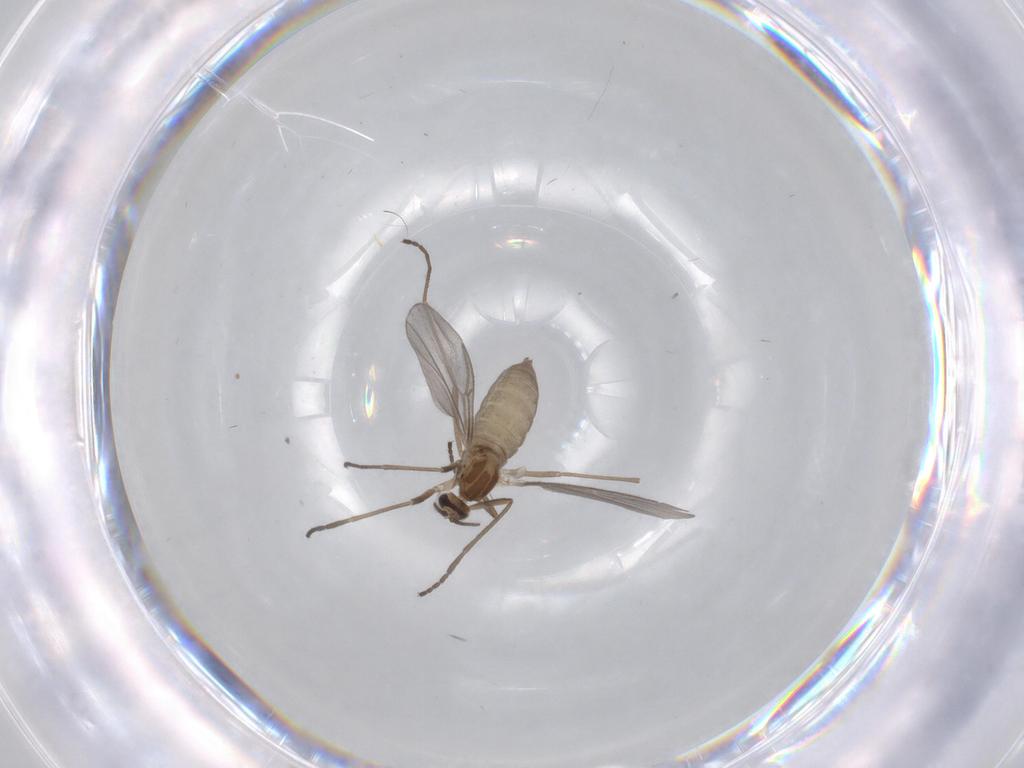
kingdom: Animalia
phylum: Arthropoda
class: Insecta
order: Diptera
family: Cecidomyiidae
